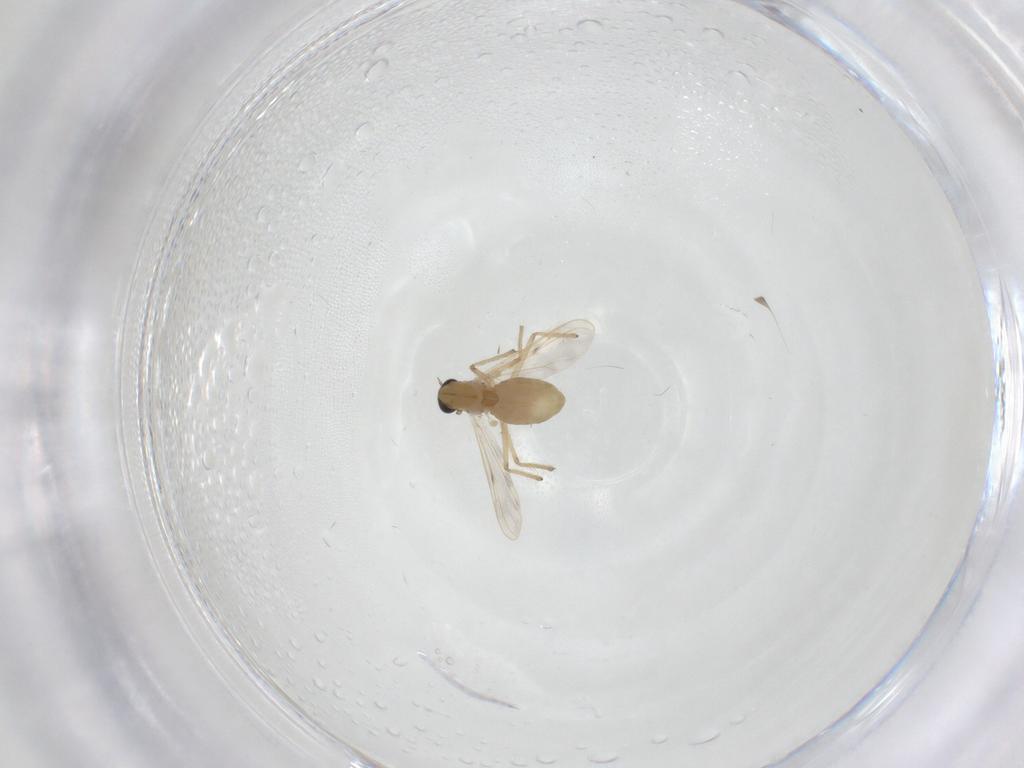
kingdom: Animalia
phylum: Arthropoda
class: Insecta
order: Diptera
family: Chironomidae
